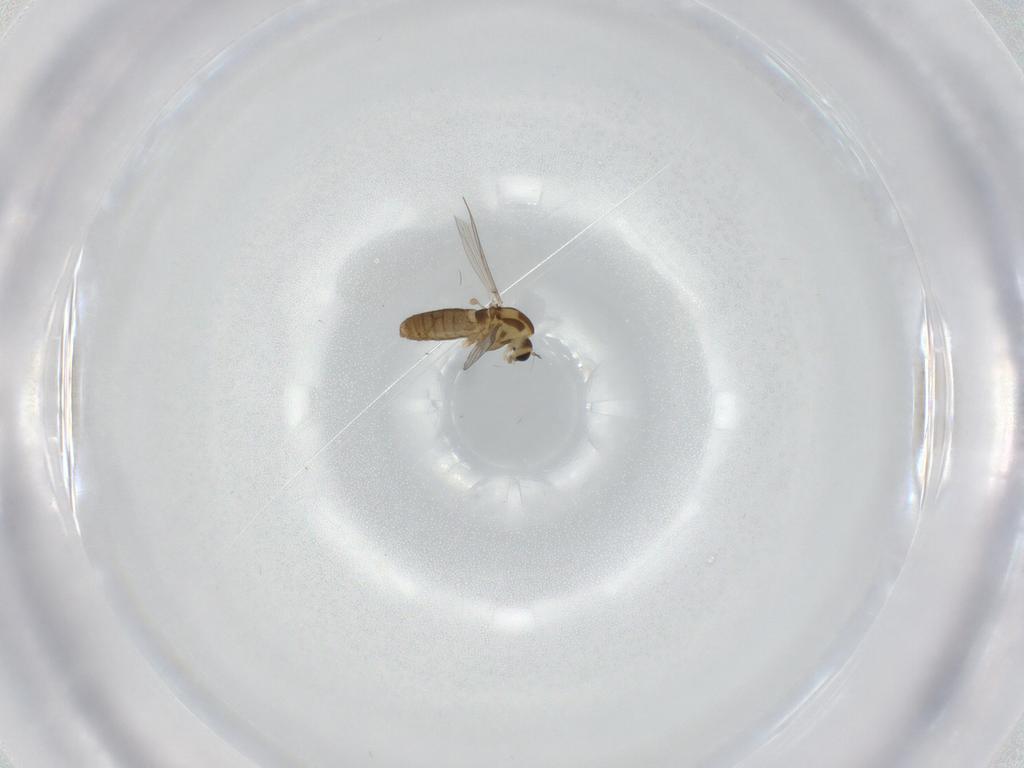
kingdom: Animalia
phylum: Arthropoda
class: Insecta
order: Diptera
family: Chironomidae
